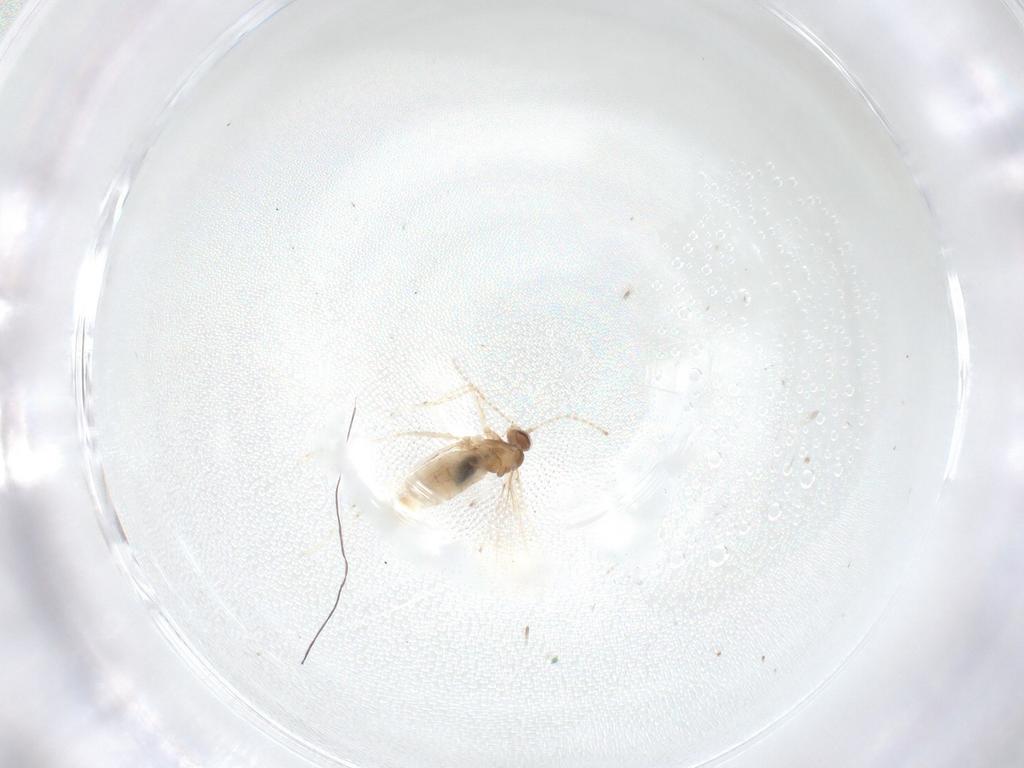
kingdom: Animalia
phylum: Arthropoda
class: Insecta
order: Diptera
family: Cecidomyiidae
